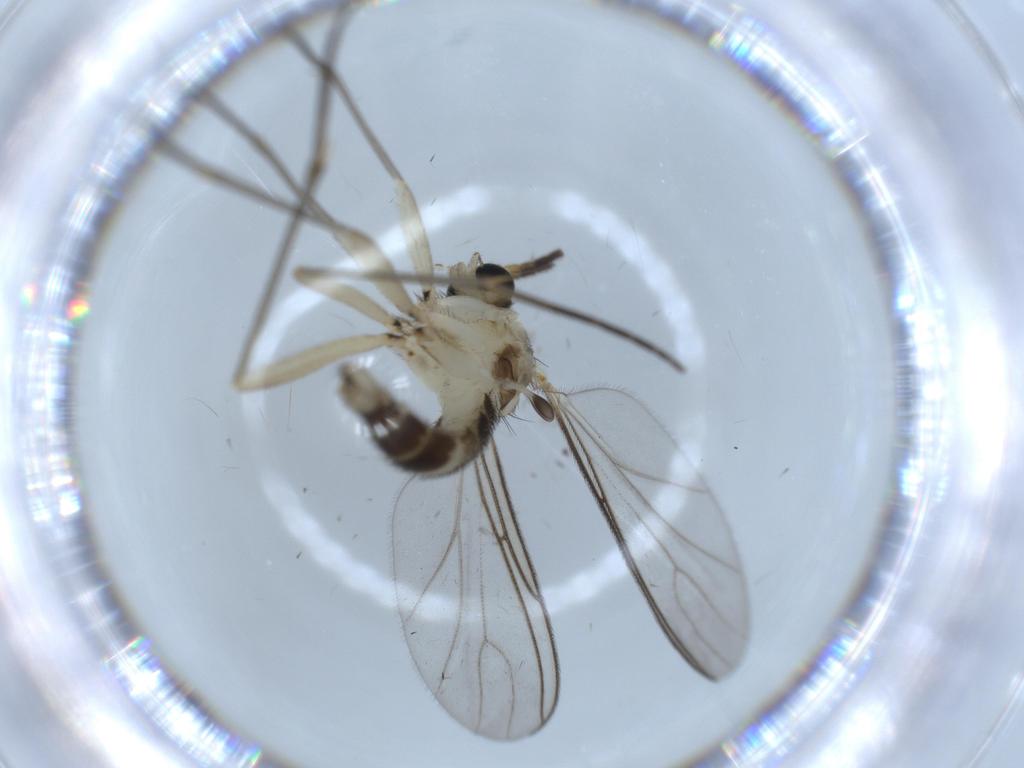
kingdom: Animalia
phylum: Arthropoda
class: Insecta
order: Diptera
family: Sciaridae
